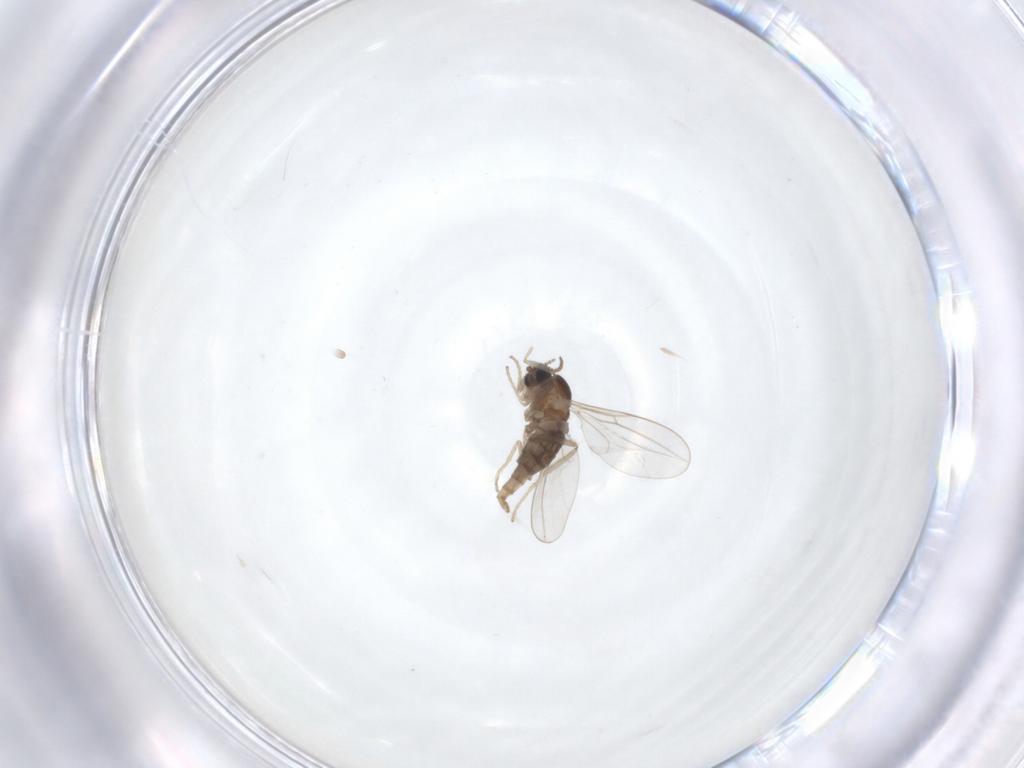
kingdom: Animalia
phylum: Arthropoda
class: Insecta
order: Diptera
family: Cecidomyiidae
